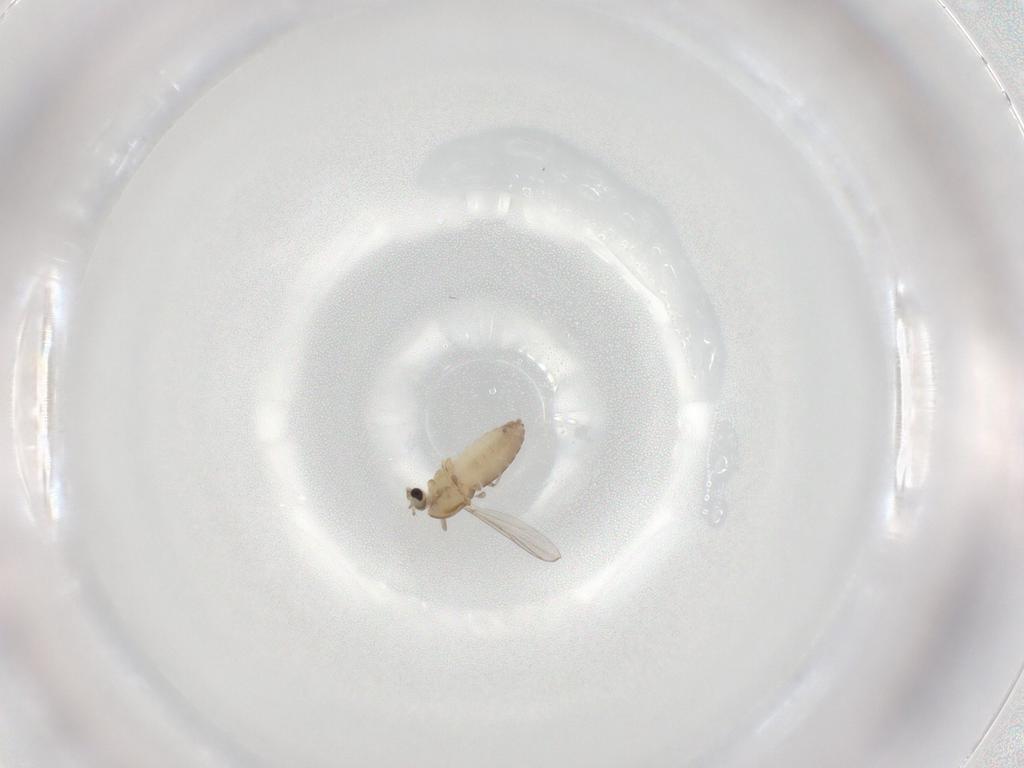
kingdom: Animalia
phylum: Arthropoda
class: Insecta
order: Diptera
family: Chironomidae
